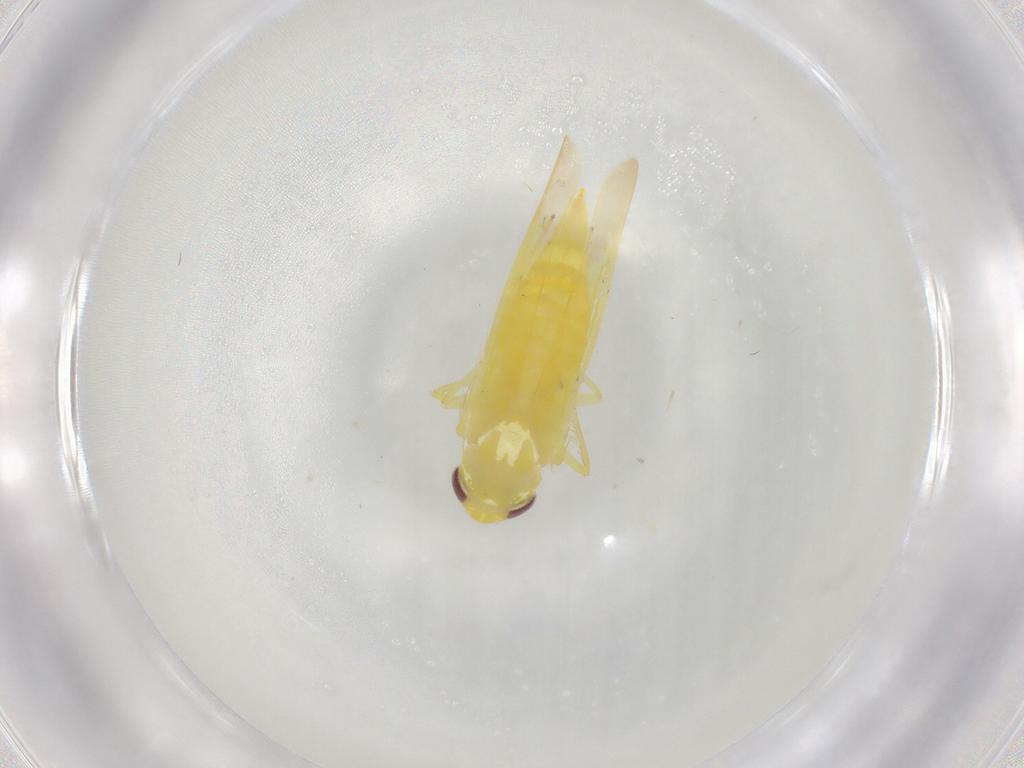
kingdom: Animalia
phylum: Arthropoda
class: Insecta
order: Hemiptera
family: Cicadellidae
